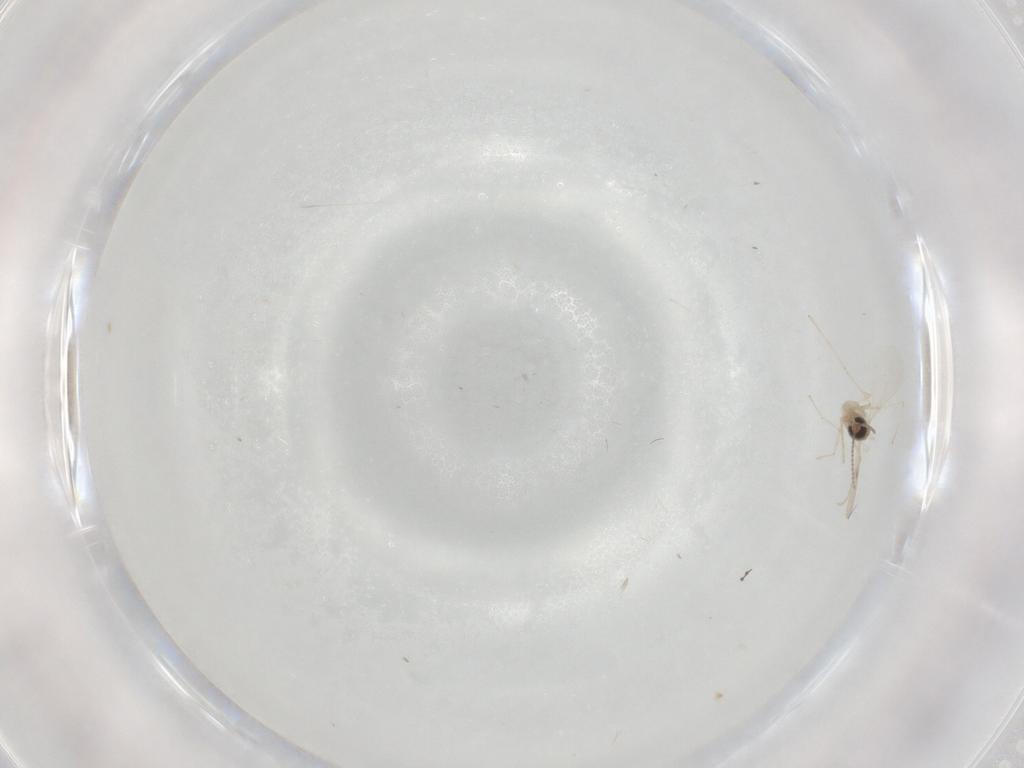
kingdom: Animalia
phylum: Arthropoda
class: Insecta
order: Diptera
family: Cecidomyiidae
